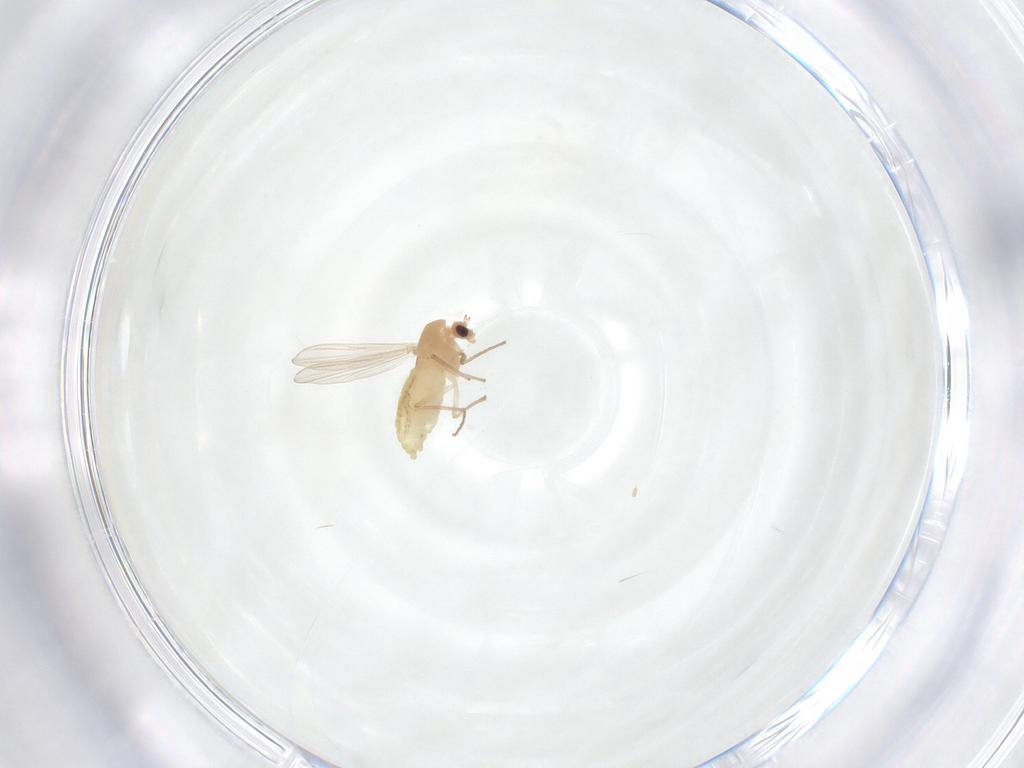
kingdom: Animalia
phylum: Arthropoda
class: Insecta
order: Diptera
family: Chironomidae
